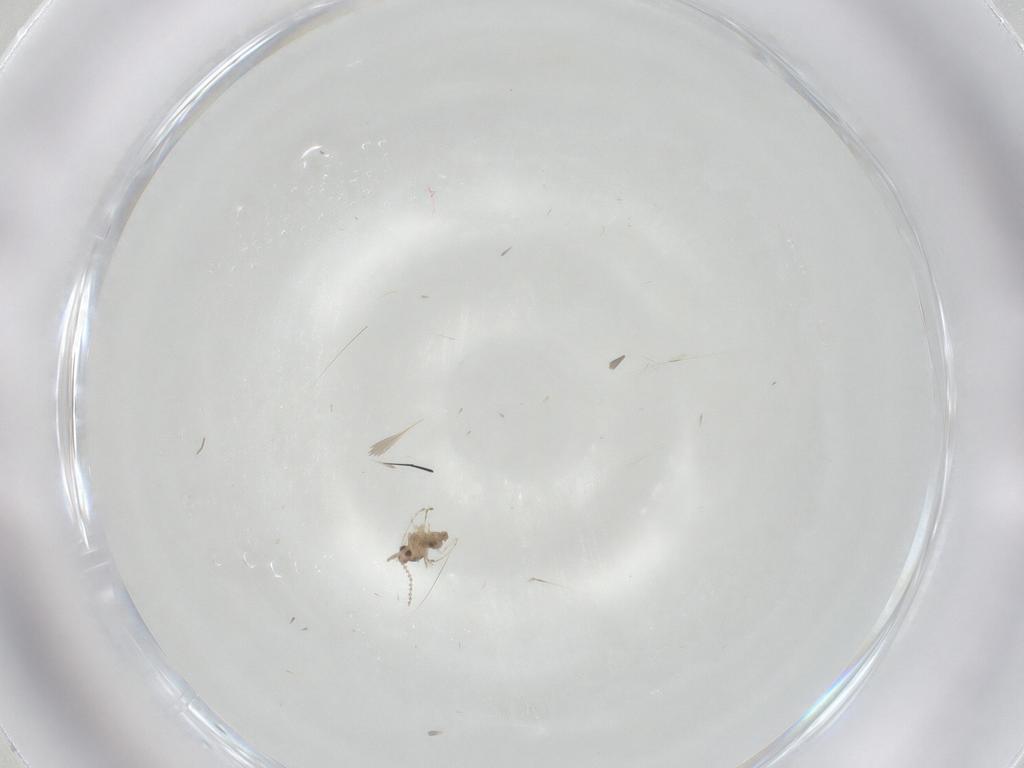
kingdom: Animalia
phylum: Arthropoda
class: Insecta
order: Diptera
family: Cecidomyiidae
